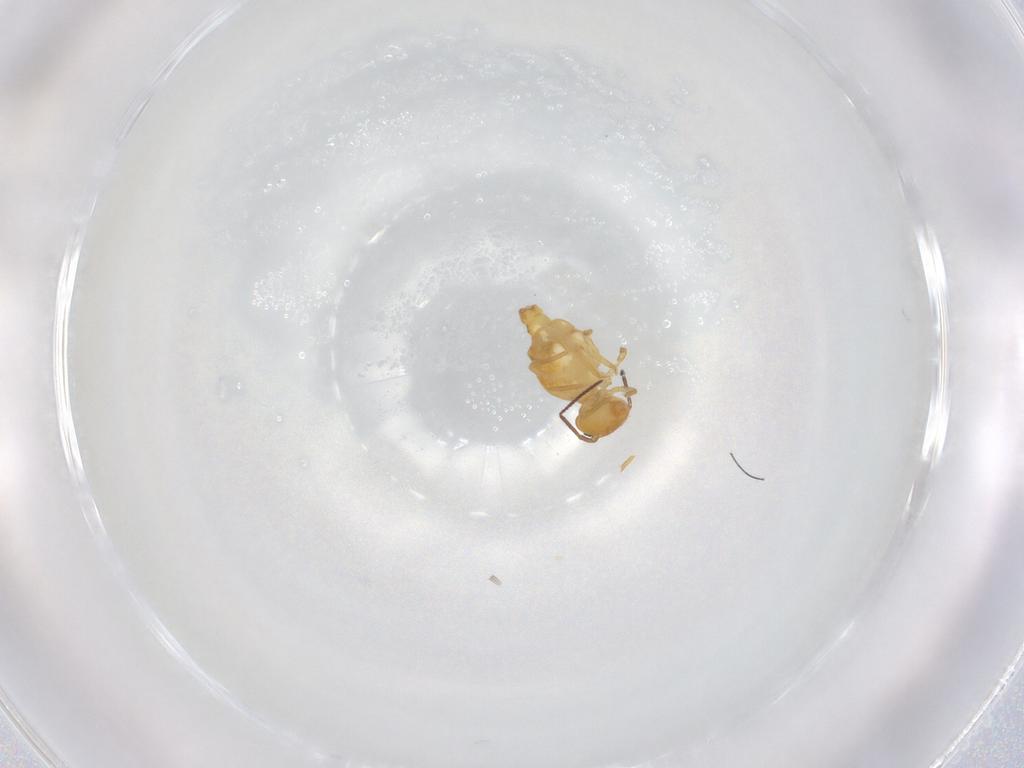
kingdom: Animalia
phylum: Arthropoda
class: Collembola
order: Symphypleona
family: Bourletiellidae
